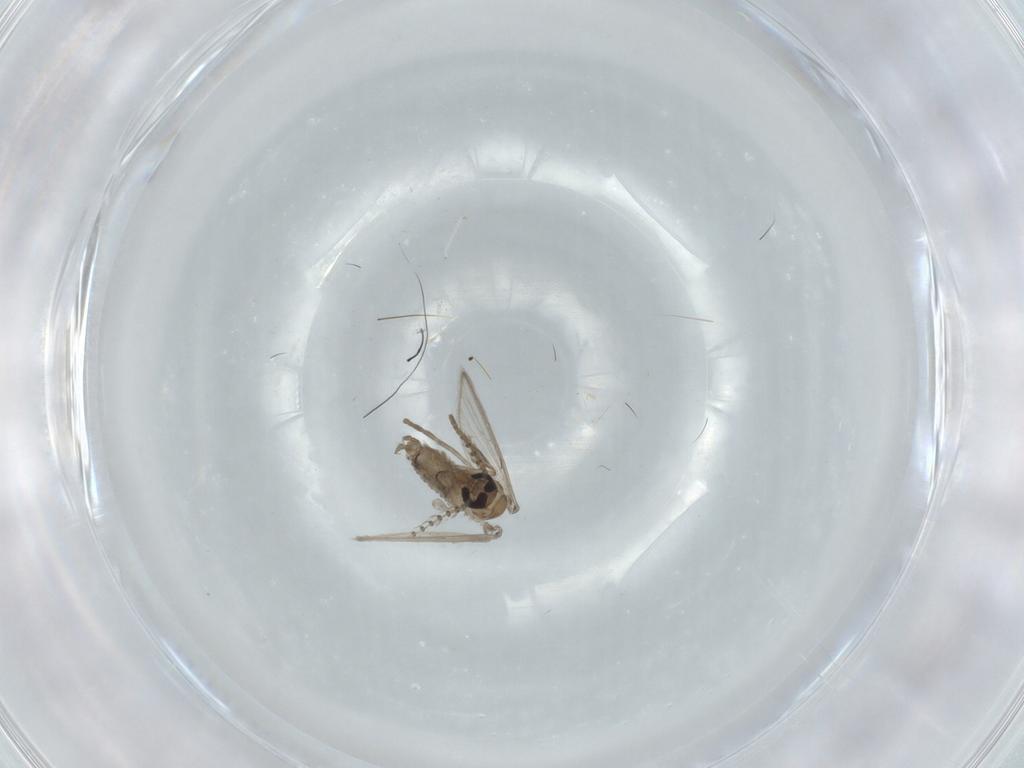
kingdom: Animalia
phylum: Arthropoda
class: Insecta
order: Diptera
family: Psychodidae
